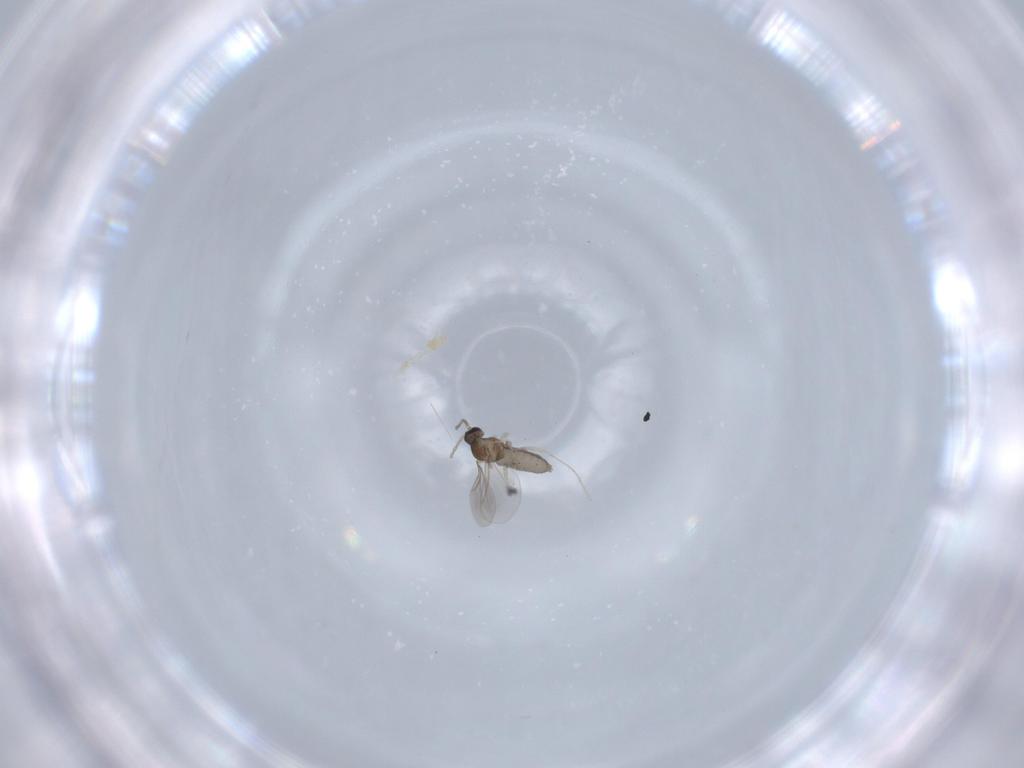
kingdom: Animalia
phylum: Arthropoda
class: Insecta
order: Diptera
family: Cecidomyiidae
